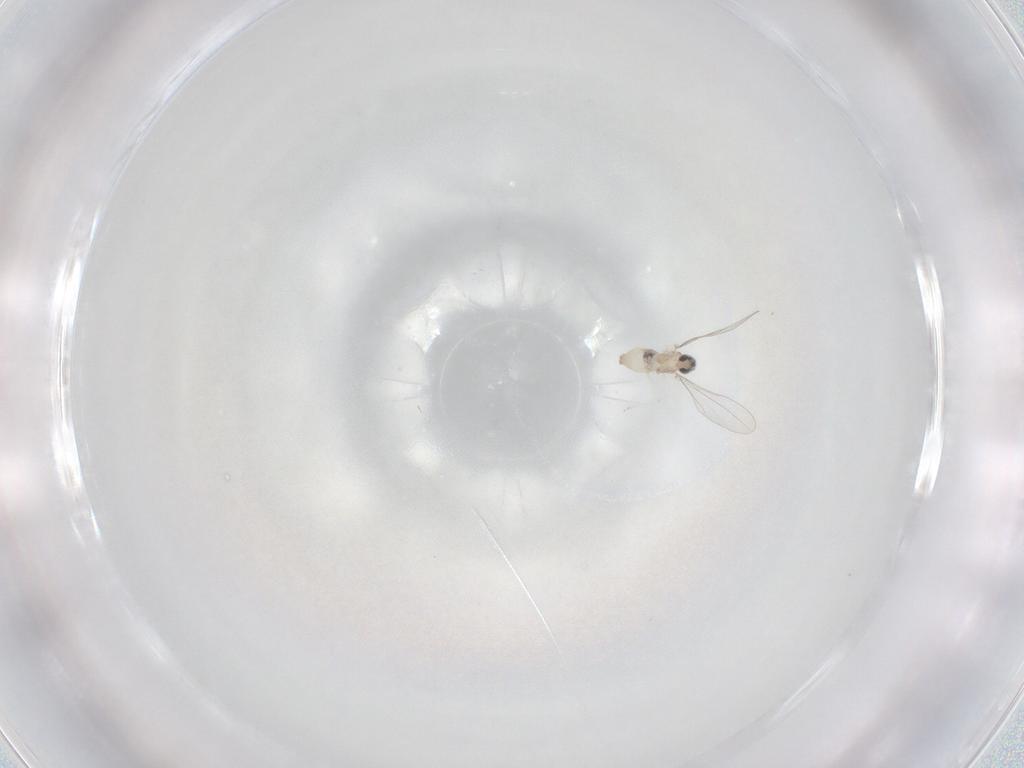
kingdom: Animalia
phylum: Arthropoda
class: Insecta
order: Diptera
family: Cecidomyiidae
